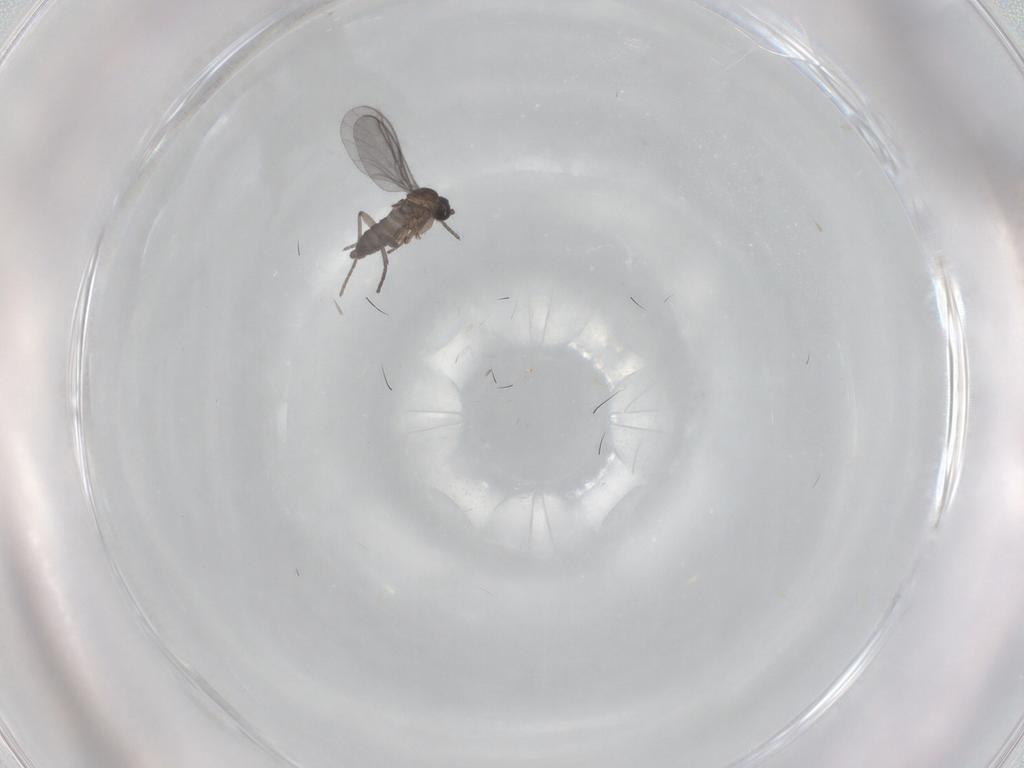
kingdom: Animalia
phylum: Arthropoda
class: Insecta
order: Diptera
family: Sciaridae
